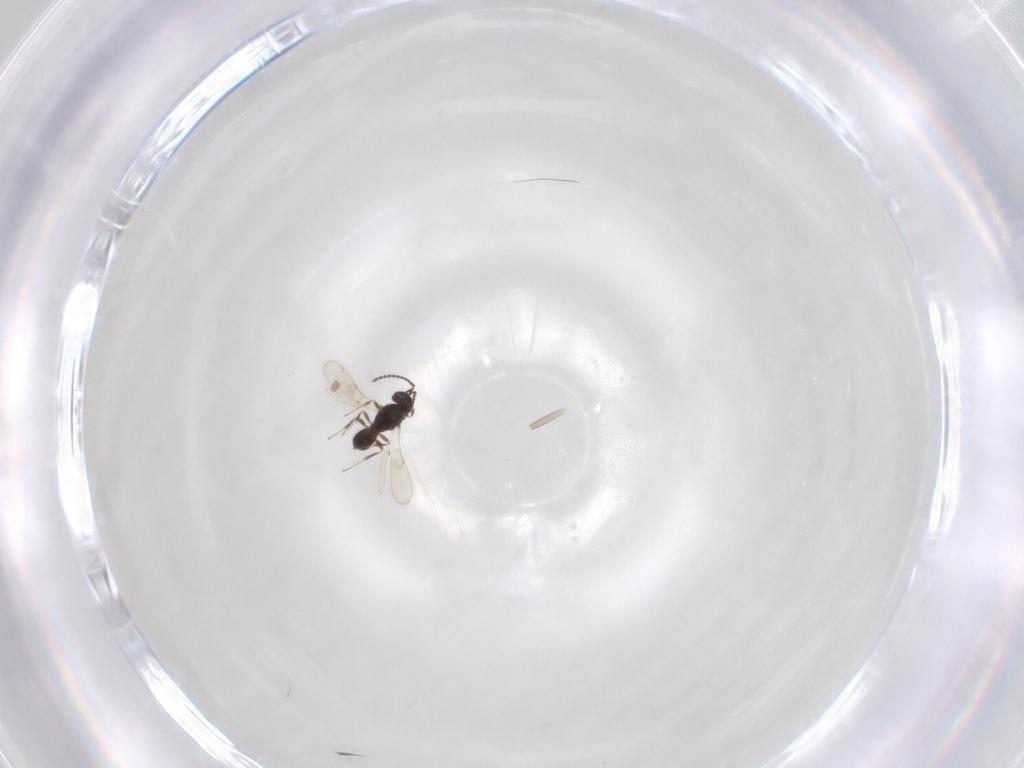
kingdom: Animalia
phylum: Arthropoda
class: Insecta
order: Hymenoptera
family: Scelionidae
